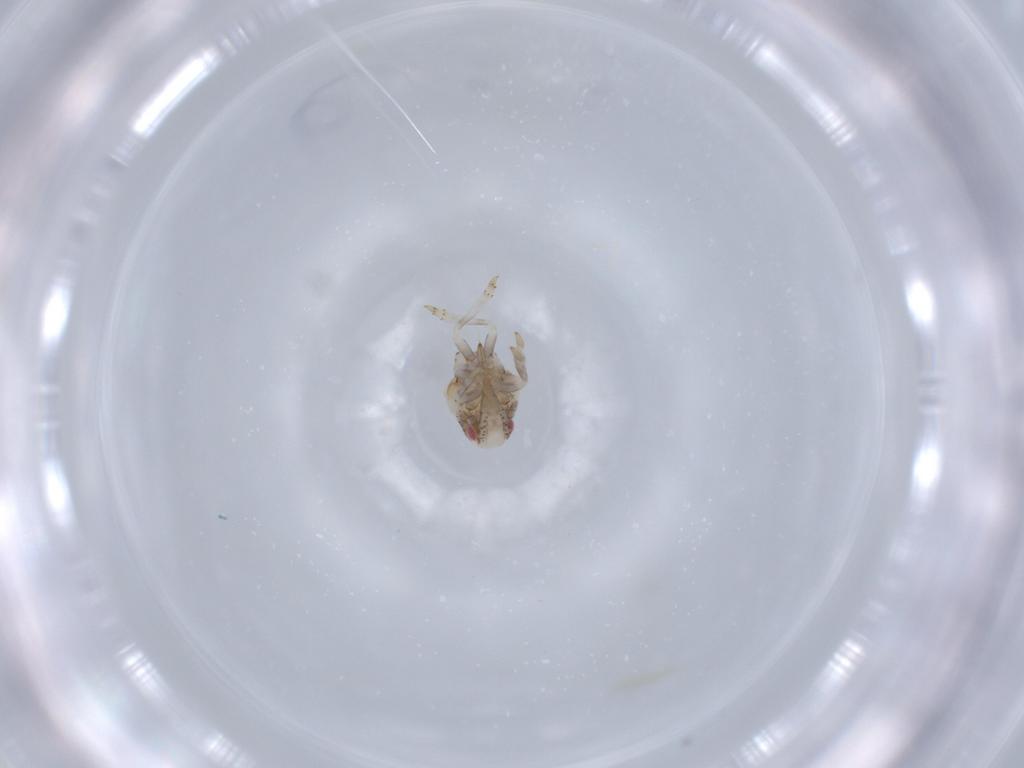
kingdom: Animalia
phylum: Arthropoda
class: Insecta
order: Hemiptera
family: Acanaloniidae
